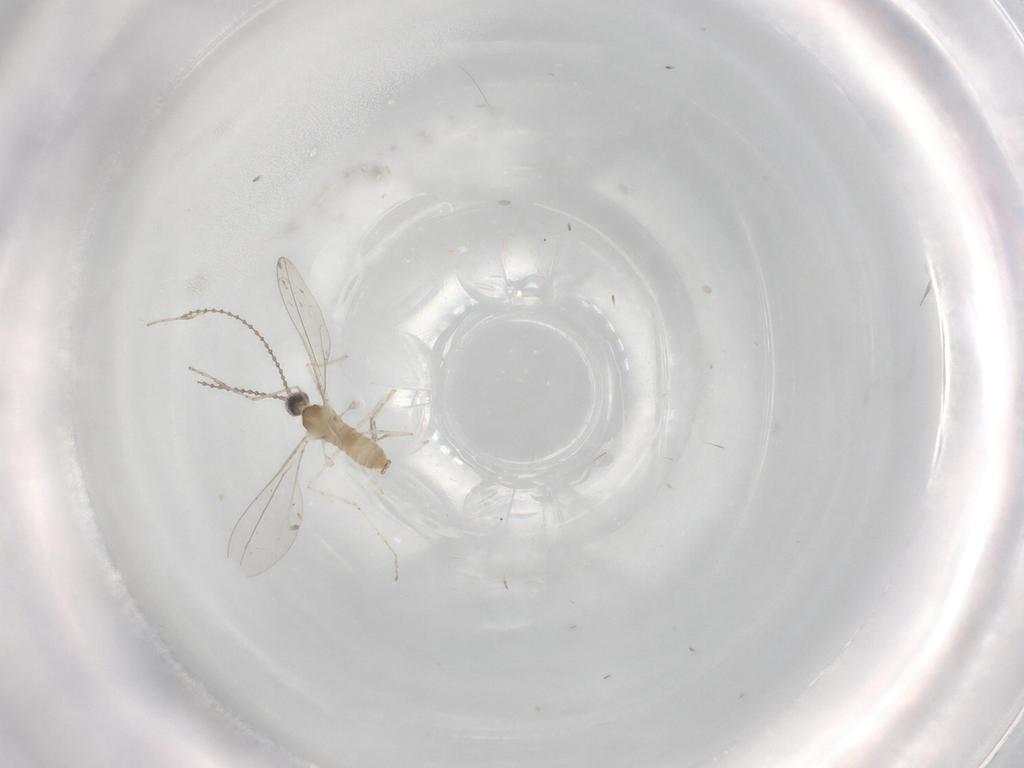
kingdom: Animalia
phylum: Arthropoda
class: Insecta
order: Diptera
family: Cecidomyiidae
